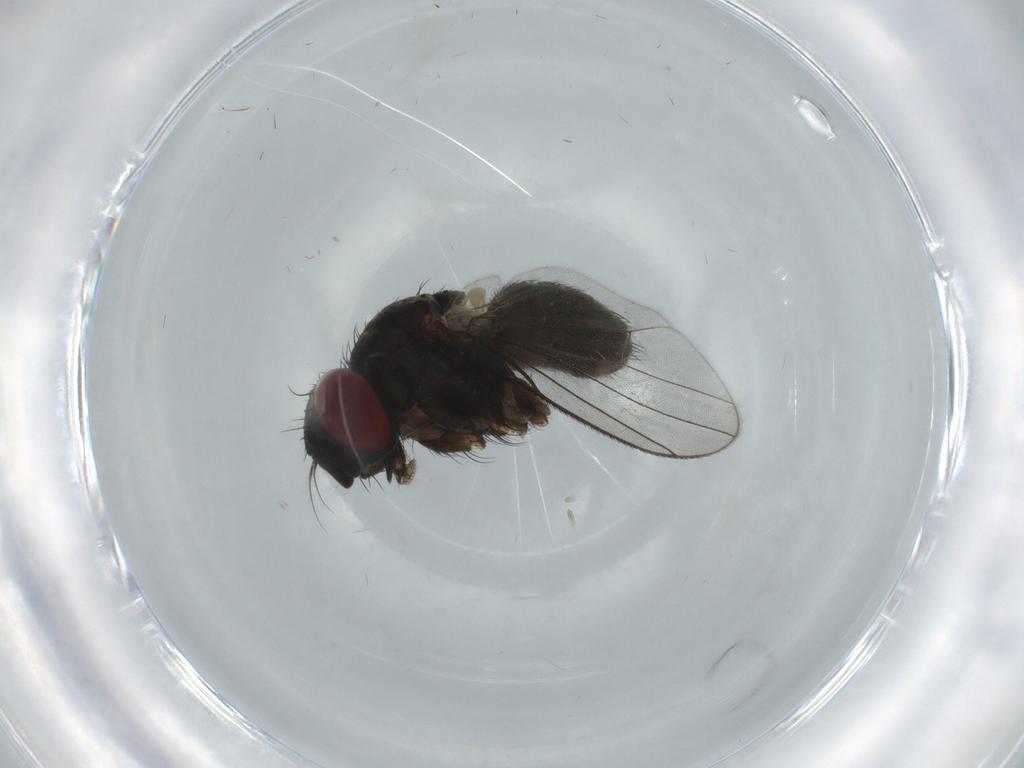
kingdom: Animalia
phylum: Arthropoda
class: Insecta
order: Diptera
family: Muscidae
